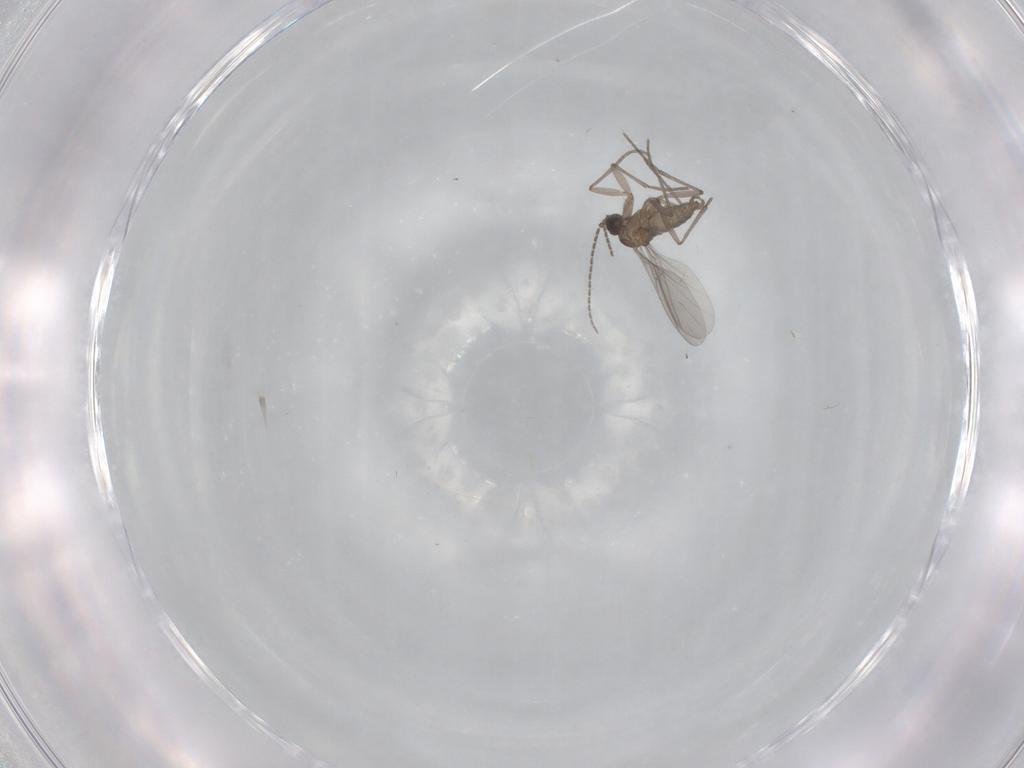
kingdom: Animalia
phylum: Arthropoda
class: Insecta
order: Diptera
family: Sciaridae
